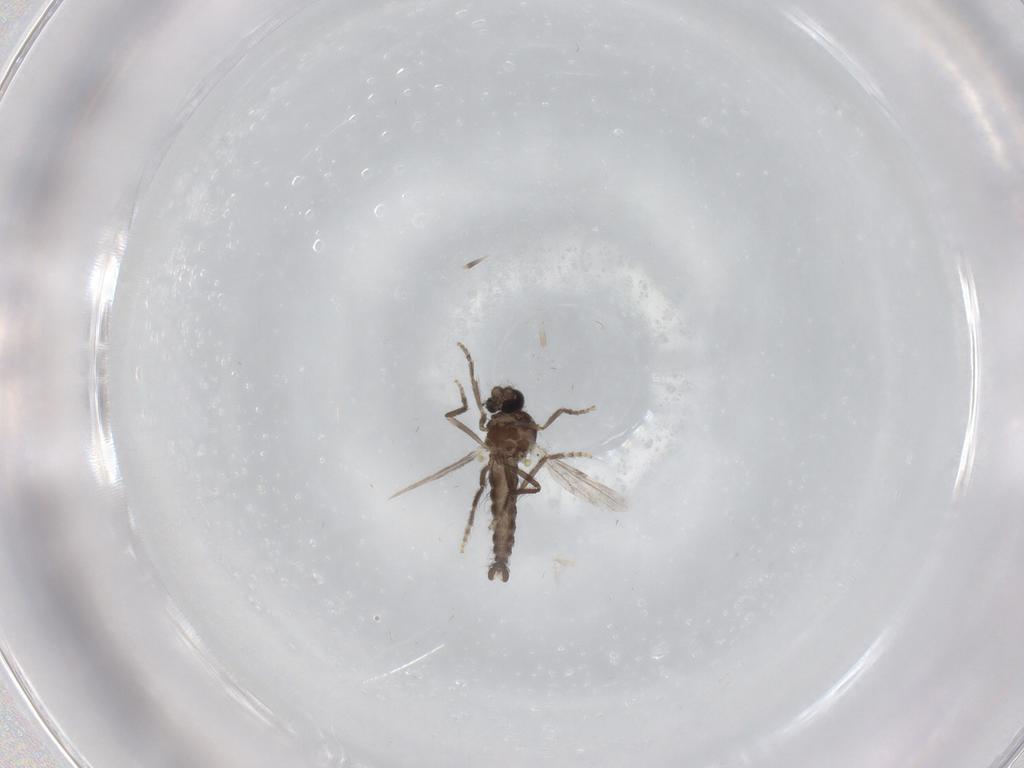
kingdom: Animalia
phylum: Arthropoda
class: Insecta
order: Diptera
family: Ceratopogonidae
